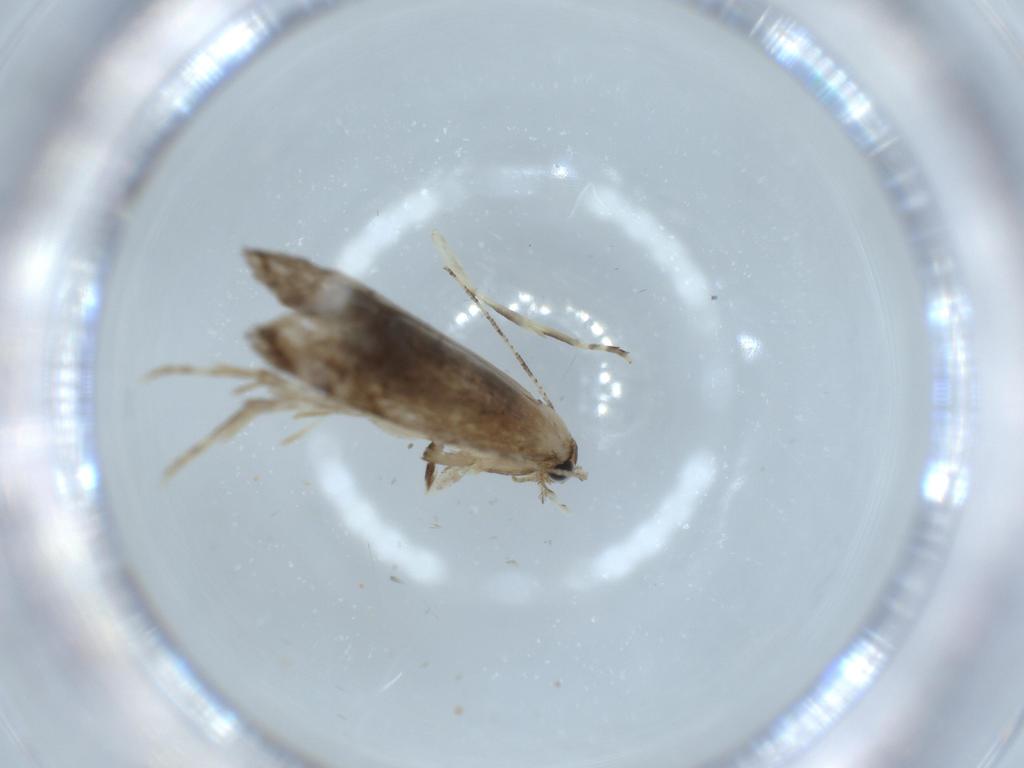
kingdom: Animalia
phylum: Arthropoda
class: Insecta
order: Lepidoptera
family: Tineidae
